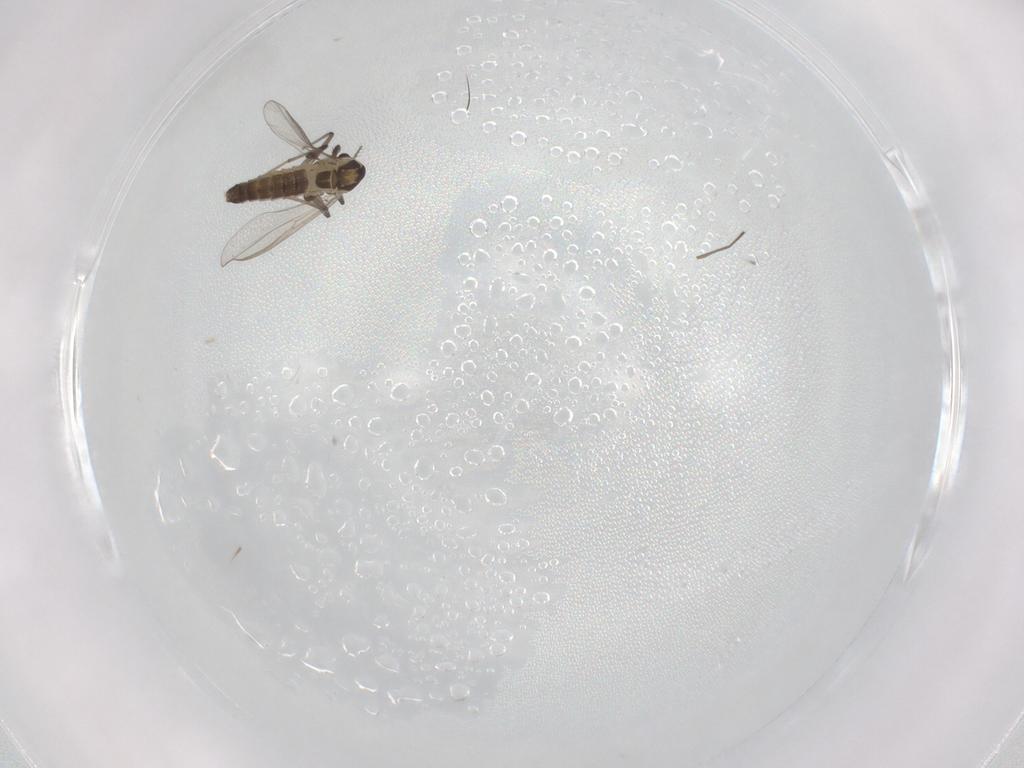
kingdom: Animalia
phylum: Arthropoda
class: Insecta
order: Diptera
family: Chironomidae
